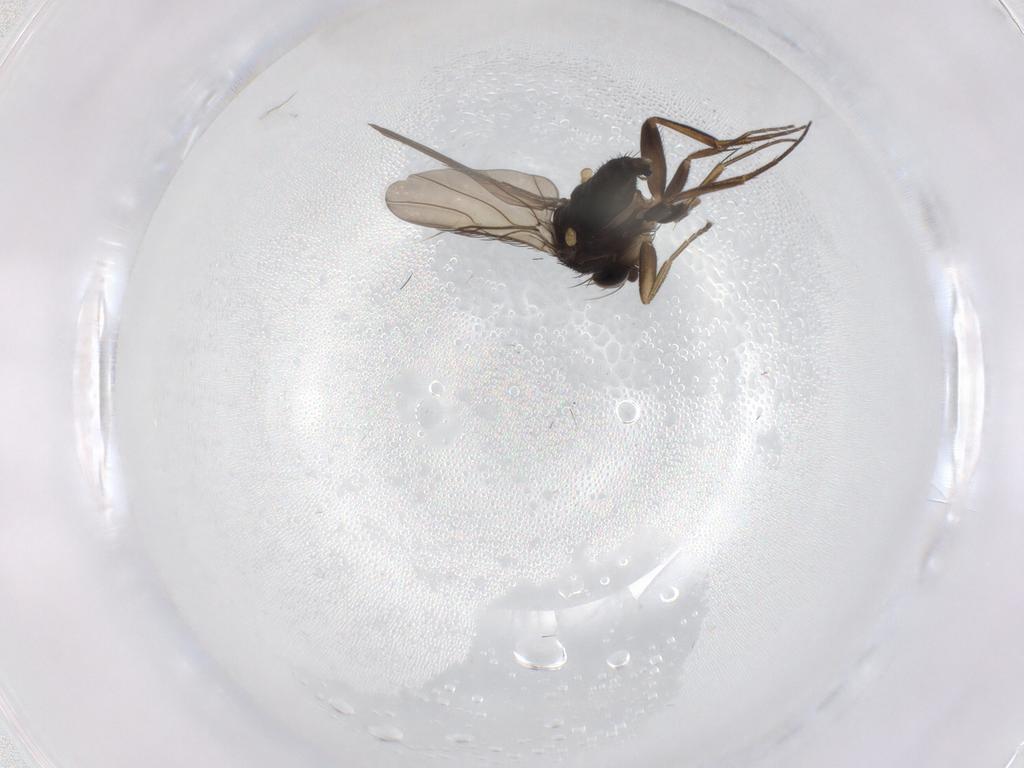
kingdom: Animalia
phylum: Arthropoda
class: Insecta
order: Diptera
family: Phoridae
